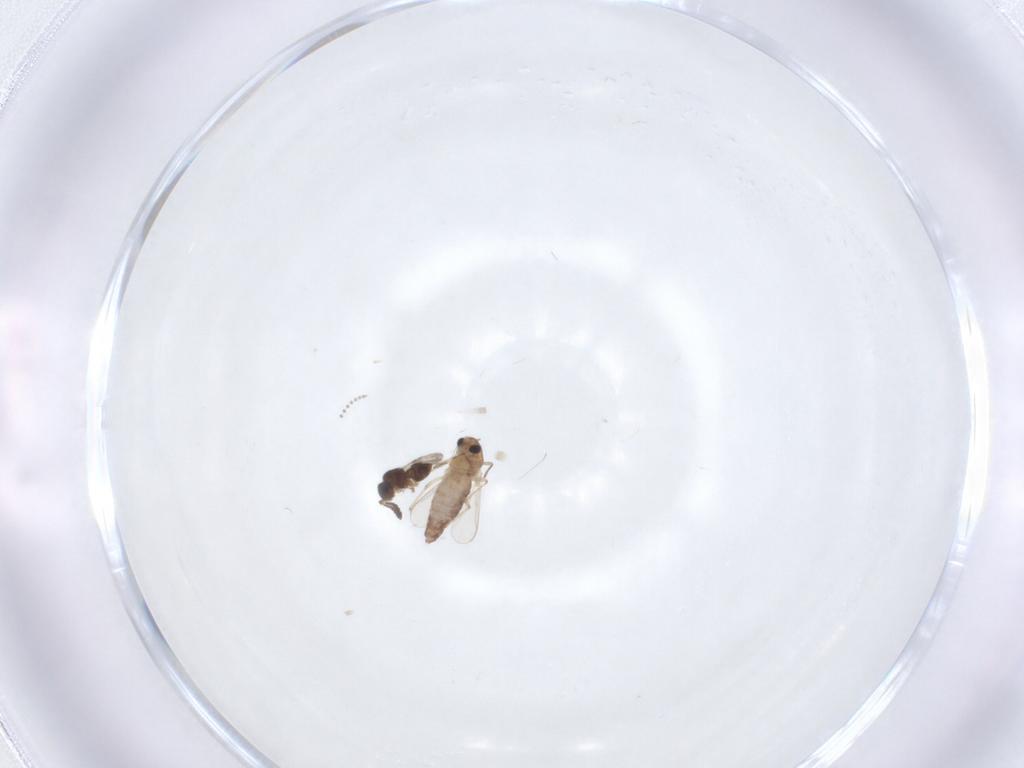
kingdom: Animalia
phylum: Arthropoda
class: Insecta
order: Diptera
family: Chironomidae
